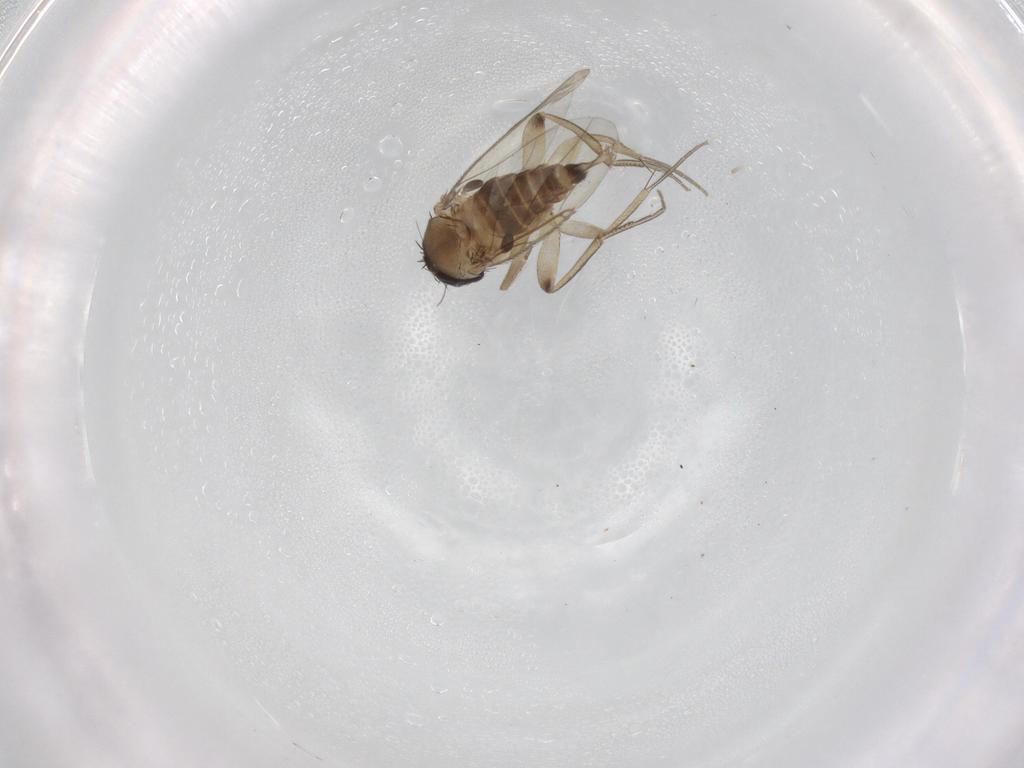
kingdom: Animalia
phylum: Arthropoda
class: Insecta
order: Diptera
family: Phoridae
